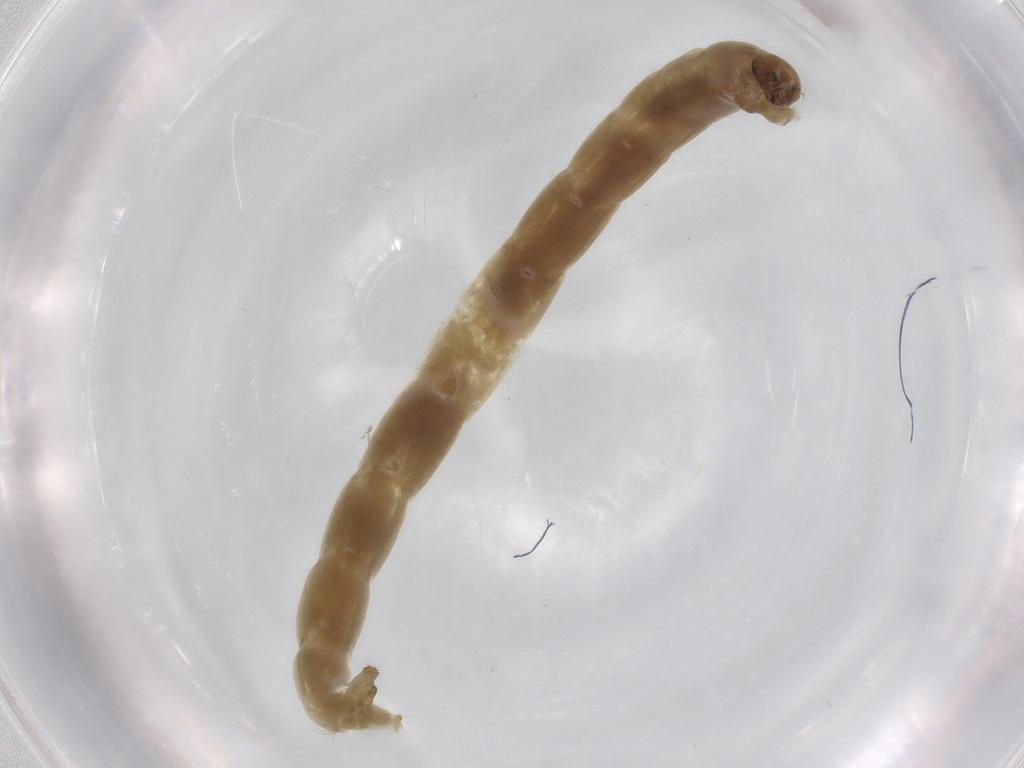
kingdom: Animalia
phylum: Arthropoda
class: Insecta
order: Diptera
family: Chironomidae
